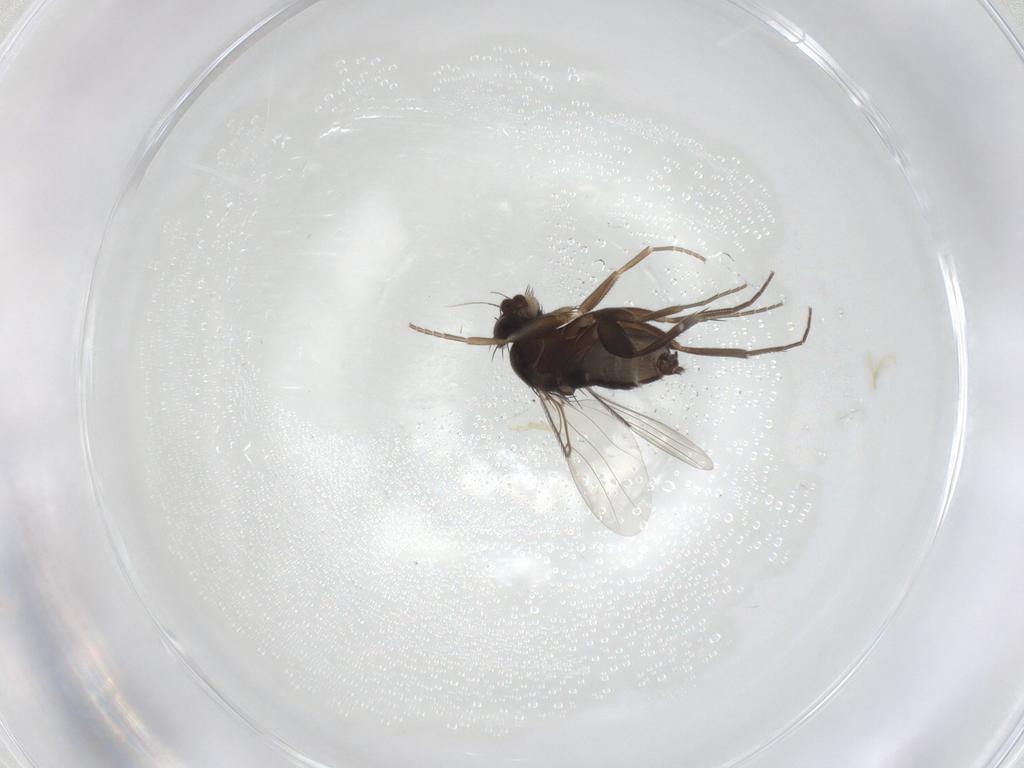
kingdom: Animalia
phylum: Arthropoda
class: Insecta
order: Diptera
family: Phoridae
